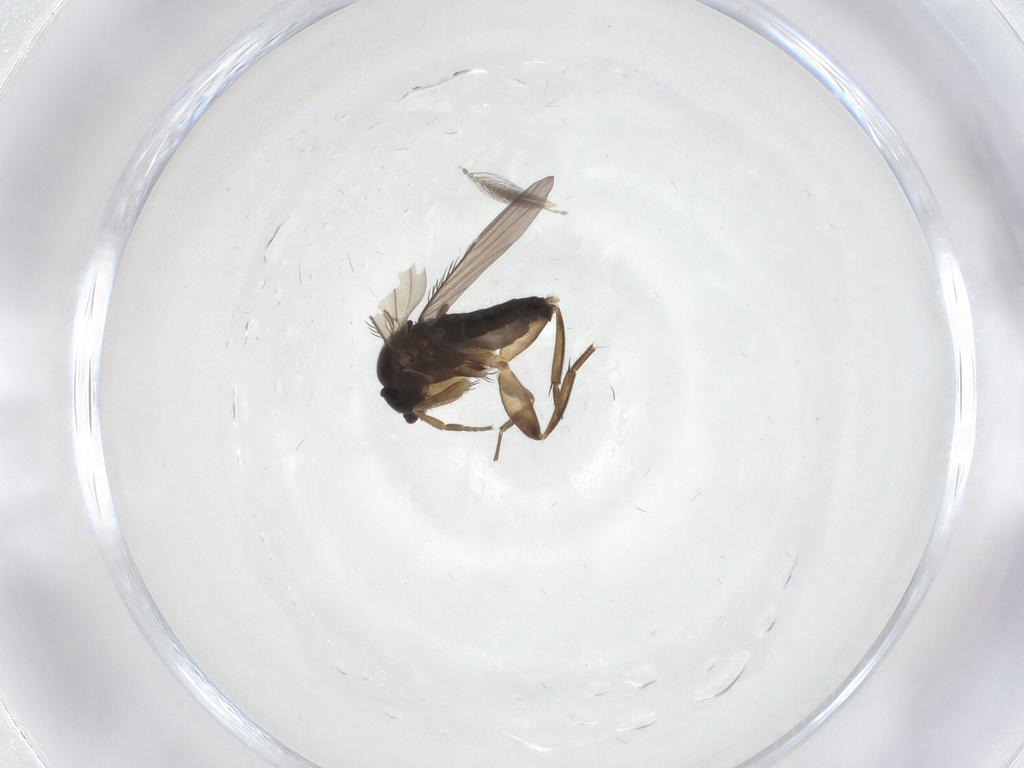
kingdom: Animalia
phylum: Arthropoda
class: Insecta
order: Diptera
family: Phoridae
